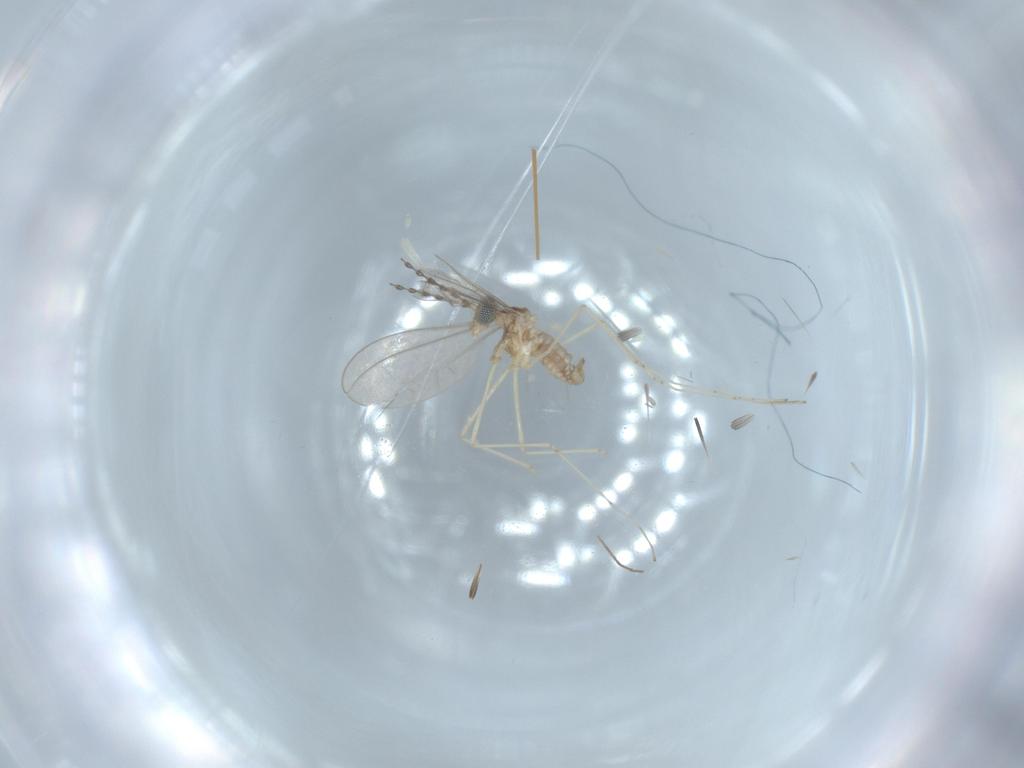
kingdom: Animalia
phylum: Arthropoda
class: Insecta
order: Diptera
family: Cecidomyiidae
